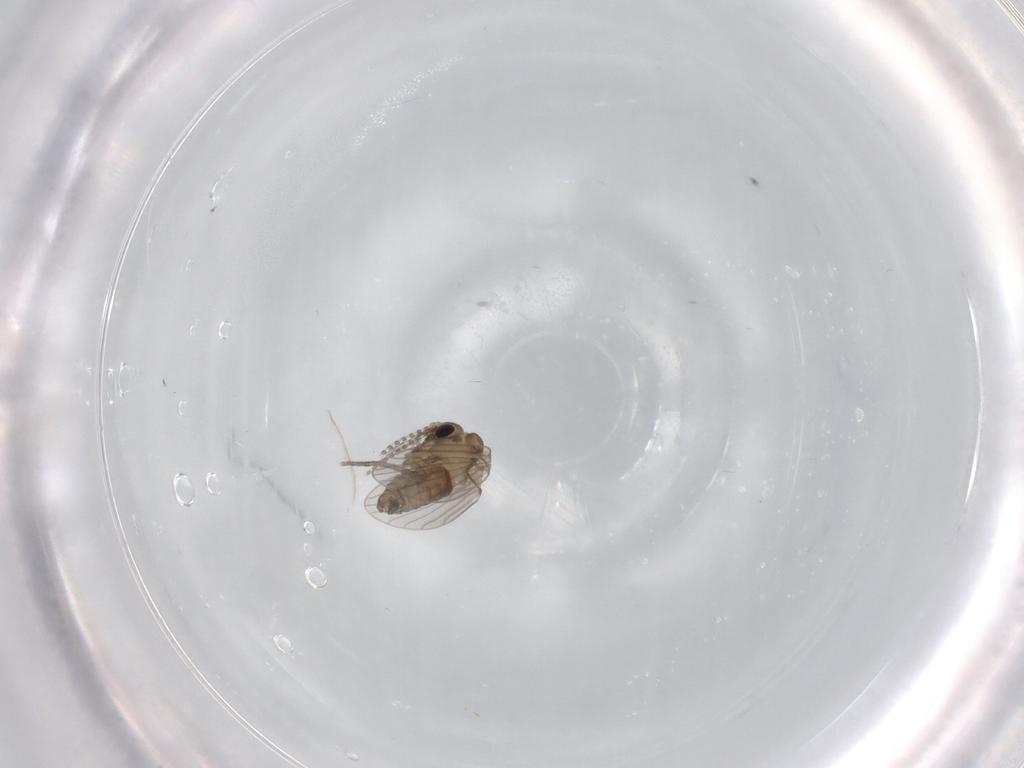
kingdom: Animalia
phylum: Arthropoda
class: Insecta
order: Diptera
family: Psychodidae
